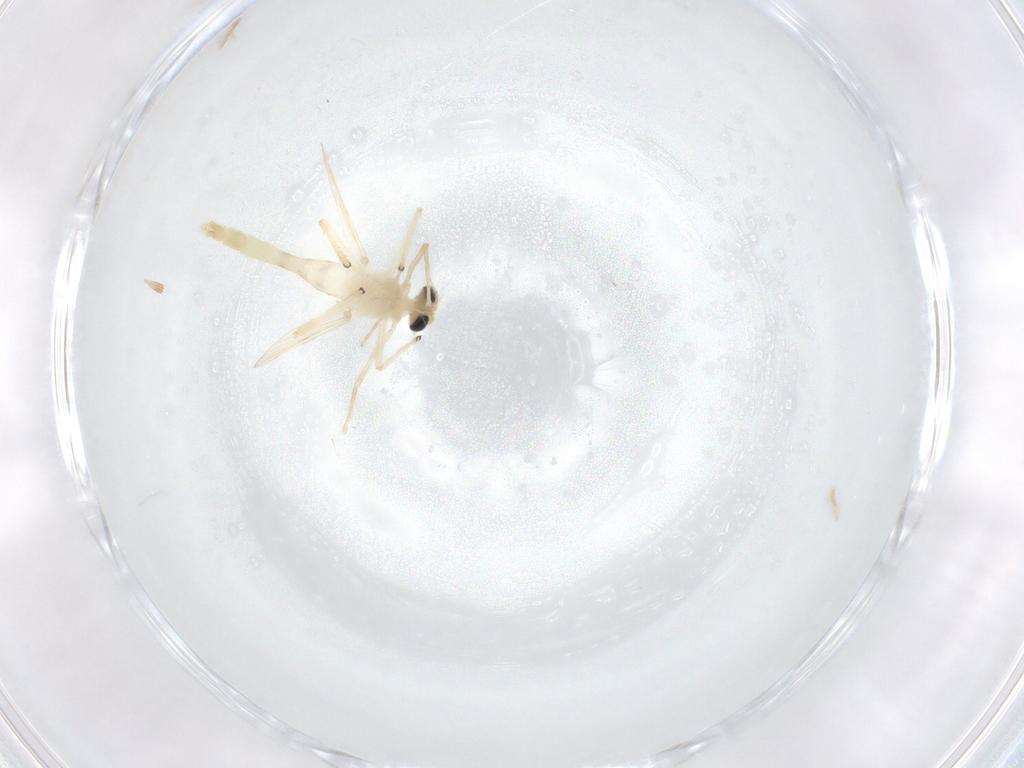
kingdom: Animalia
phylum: Arthropoda
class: Insecta
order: Diptera
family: Chironomidae
